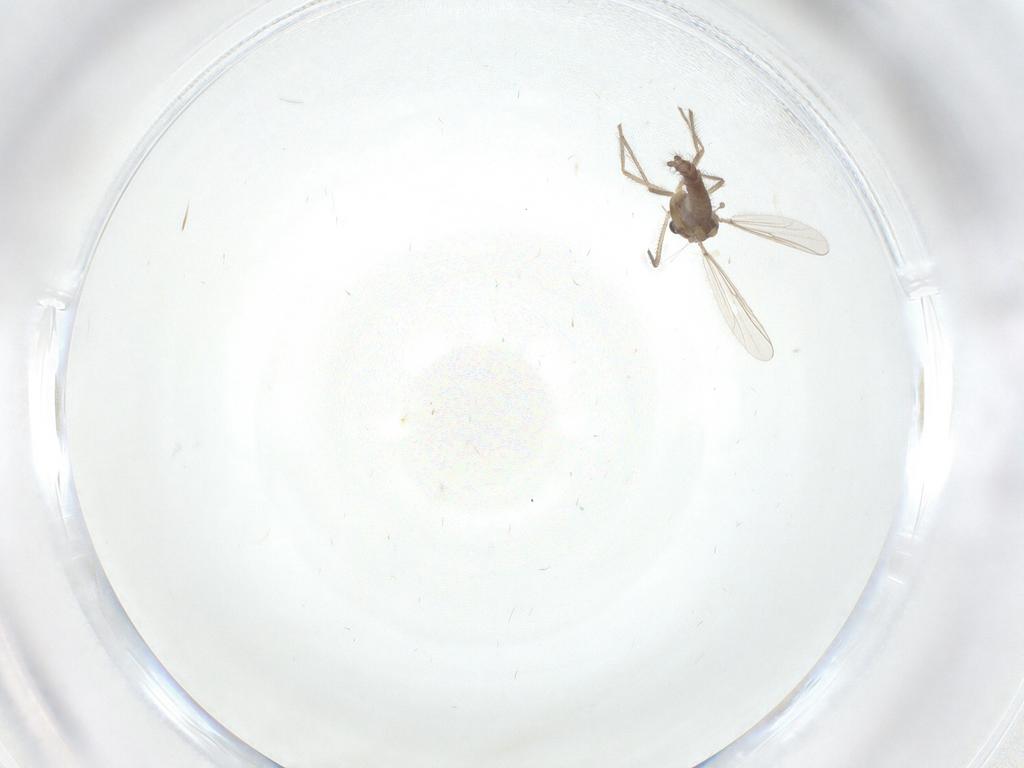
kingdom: Animalia
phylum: Arthropoda
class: Insecta
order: Diptera
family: Chironomidae
